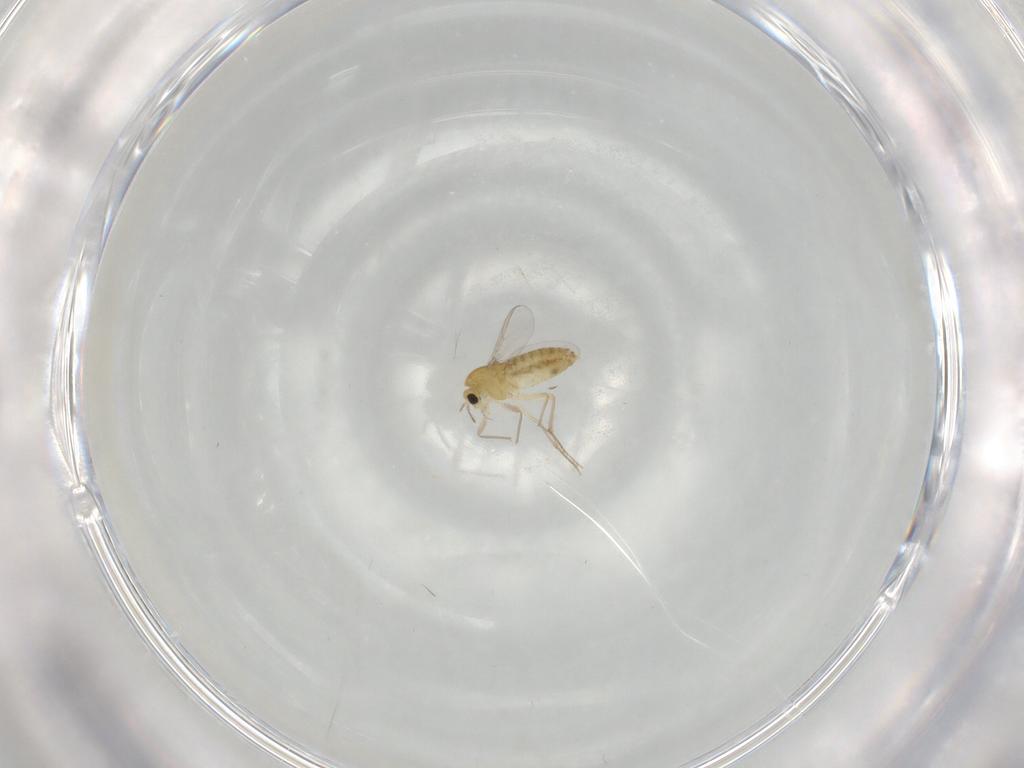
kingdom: Animalia
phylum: Arthropoda
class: Insecta
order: Diptera
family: Chironomidae
